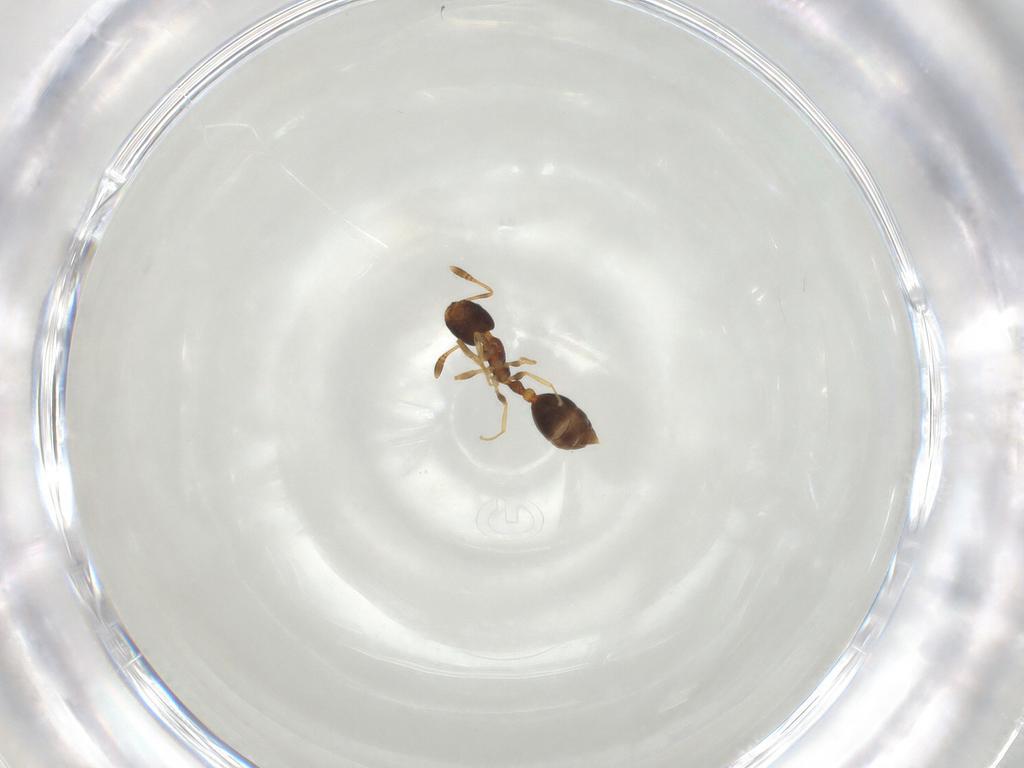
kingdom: Animalia
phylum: Arthropoda
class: Insecta
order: Hymenoptera
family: Formicidae
